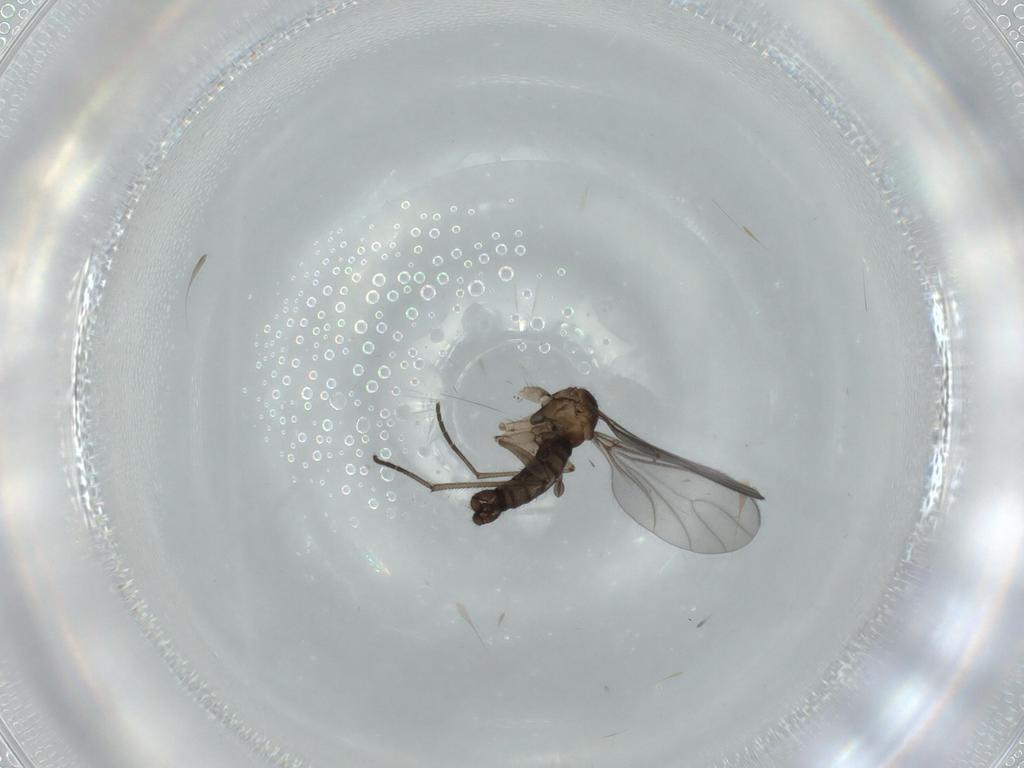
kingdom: Animalia
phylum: Arthropoda
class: Insecta
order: Diptera
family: Sciaridae
